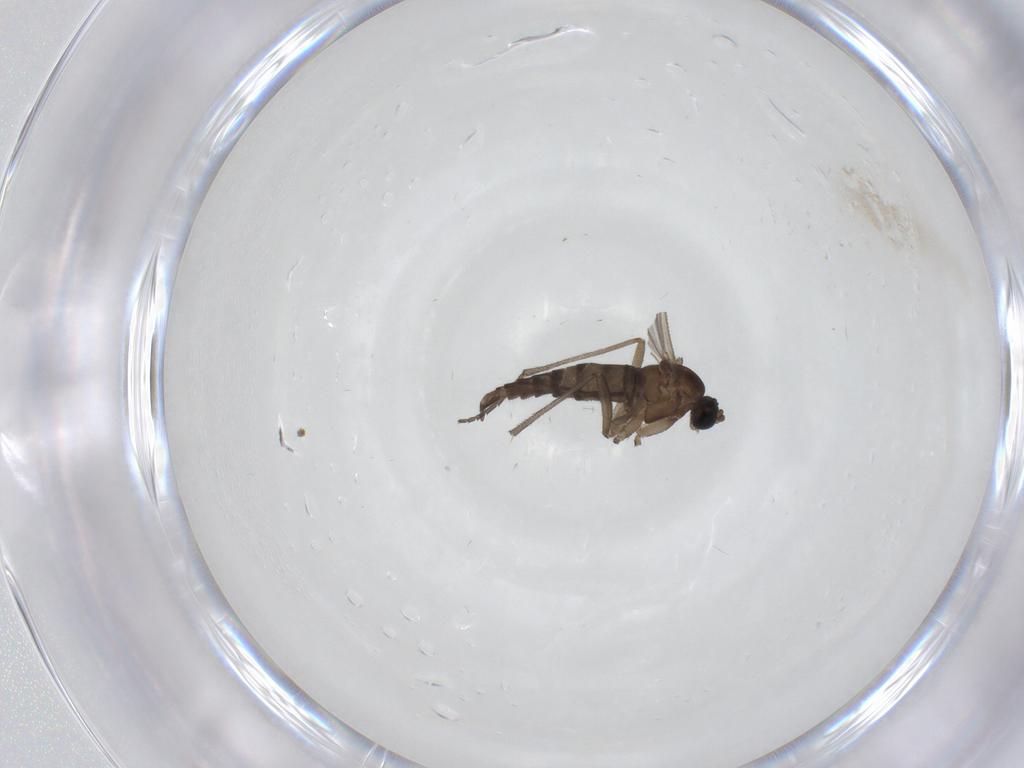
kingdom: Animalia
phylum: Arthropoda
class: Insecta
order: Diptera
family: Sciaridae
